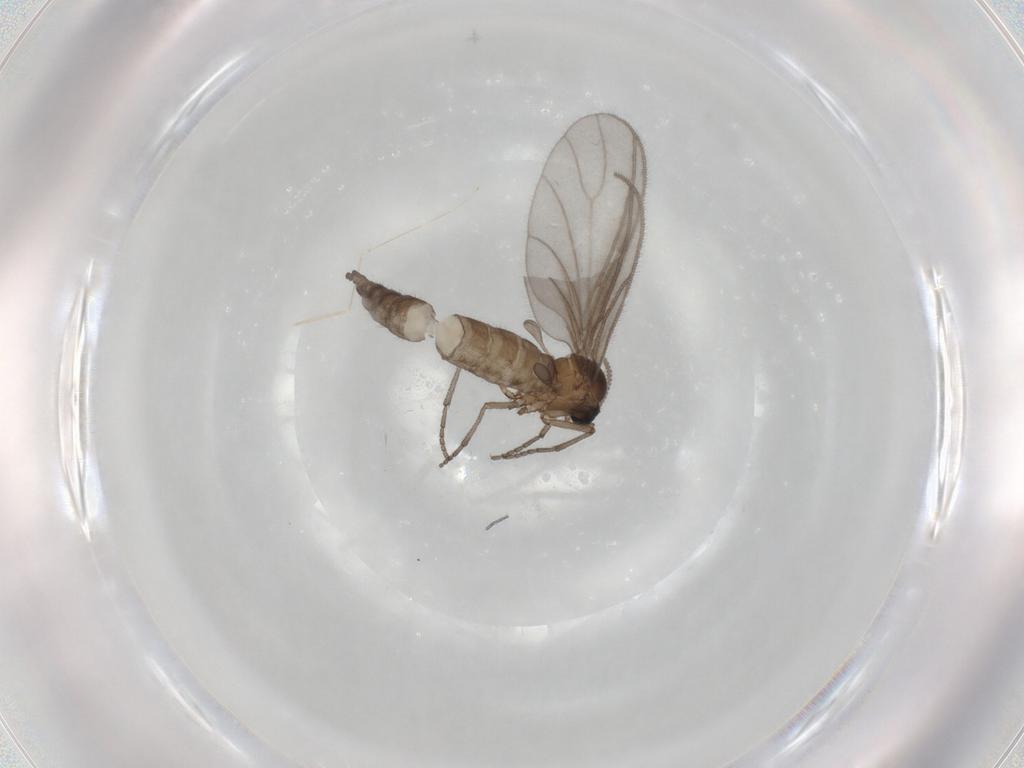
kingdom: Animalia
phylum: Arthropoda
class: Insecta
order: Diptera
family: Sciaridae
